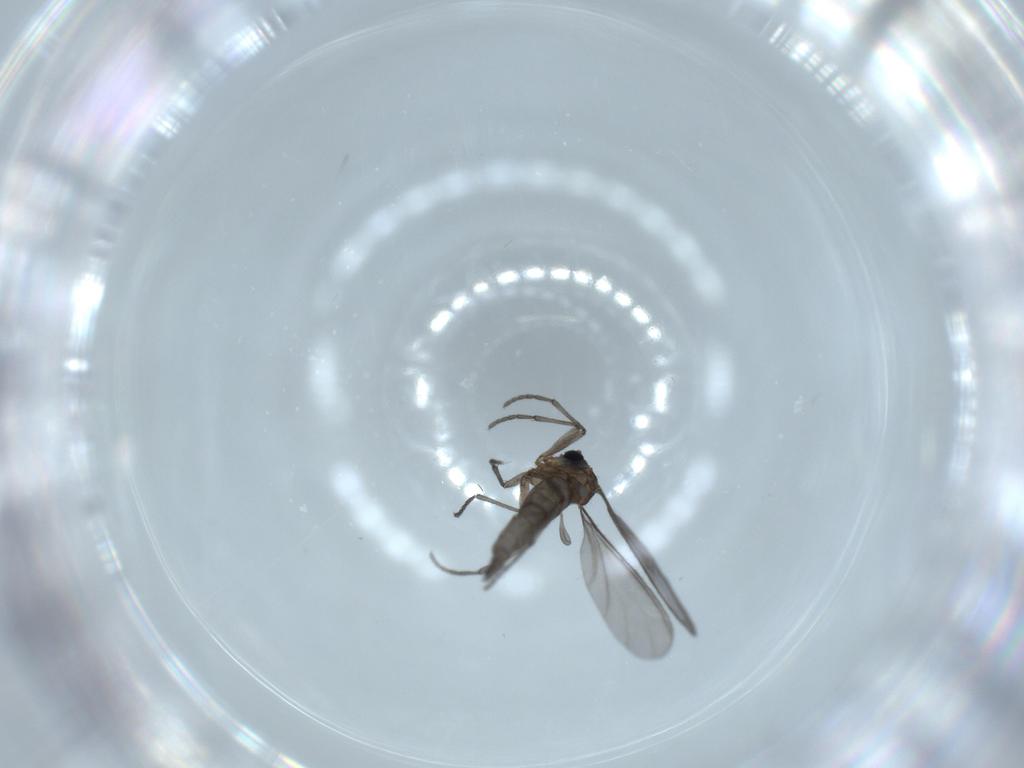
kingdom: Animalia
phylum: Arthropoda
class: Insecta
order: Diptera
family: Sciaridae
